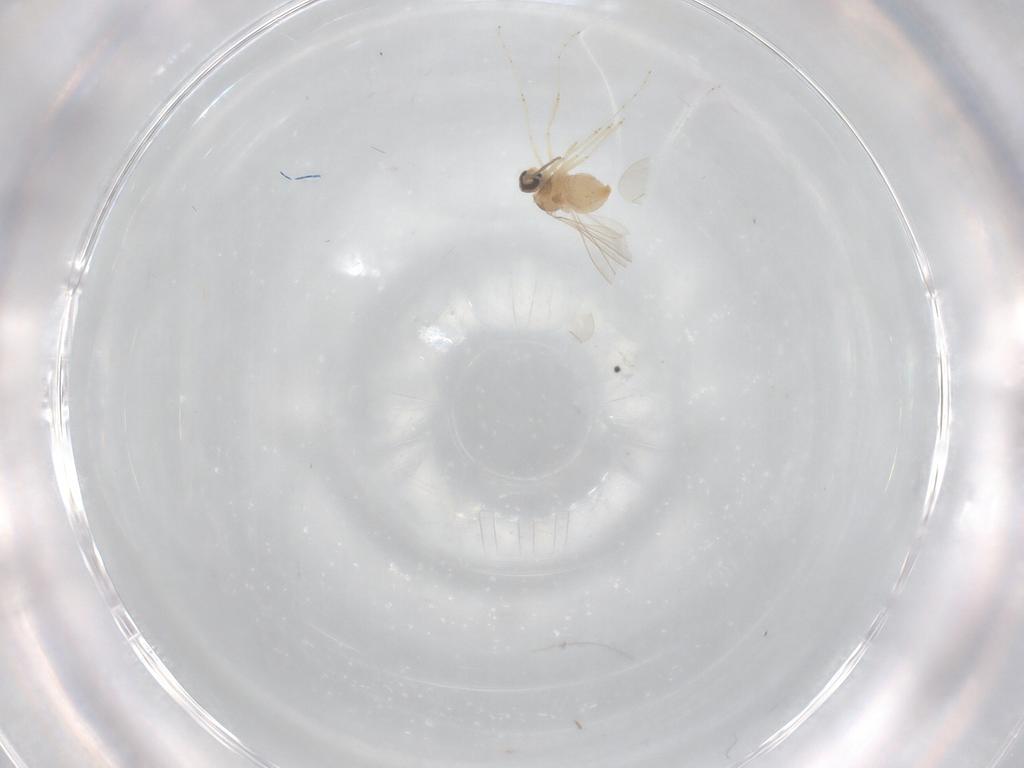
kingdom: Animalia
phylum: Arthropoda
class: Insecta
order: Diptera
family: Cecidomyiidae
